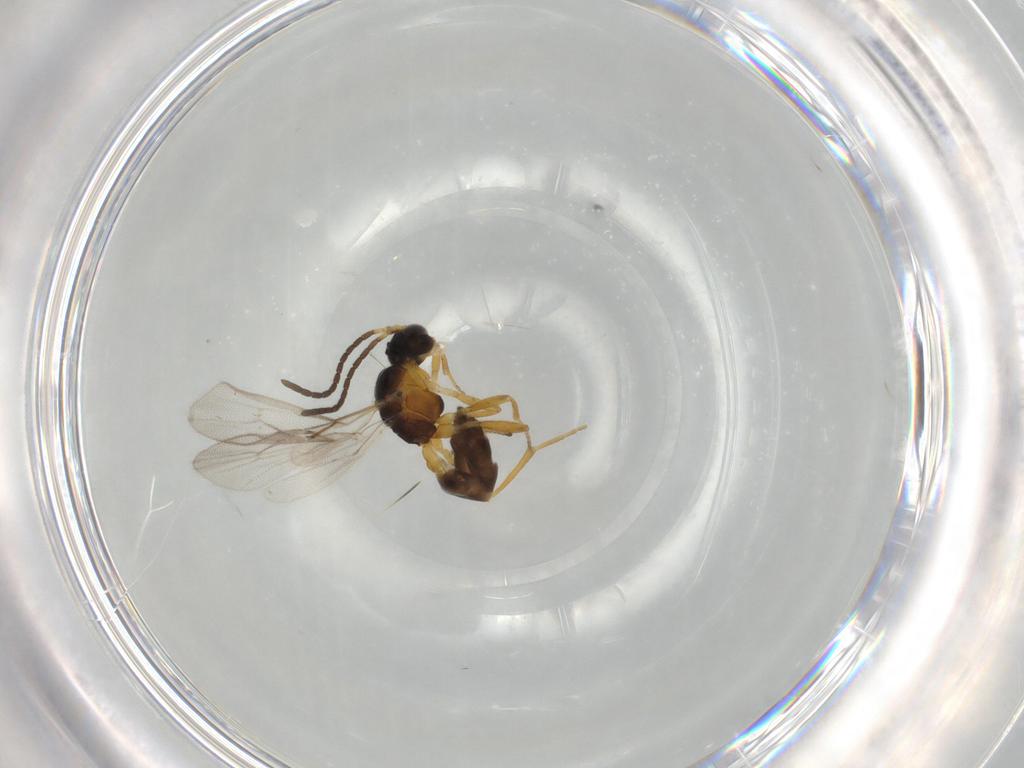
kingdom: Animalia
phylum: Arthropoda
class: Insecta
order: Hymenoptera
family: Braconidae
